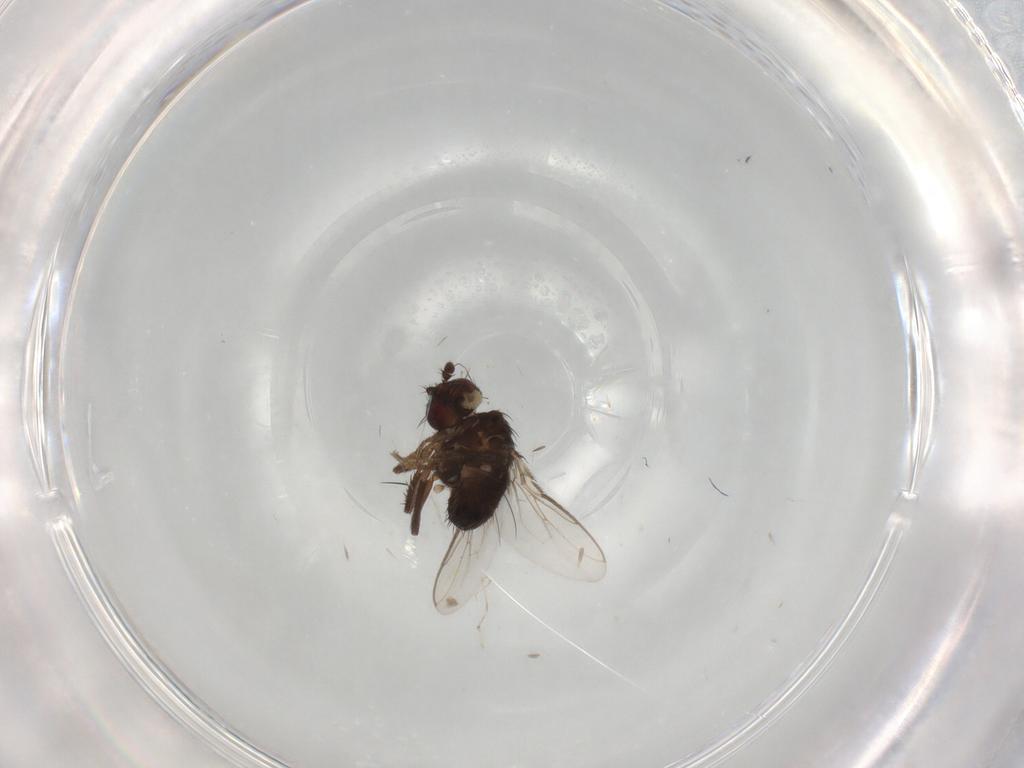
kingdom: Animalia
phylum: Arthropoda
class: Insecta
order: Diptera
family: Sphaeroceridae
